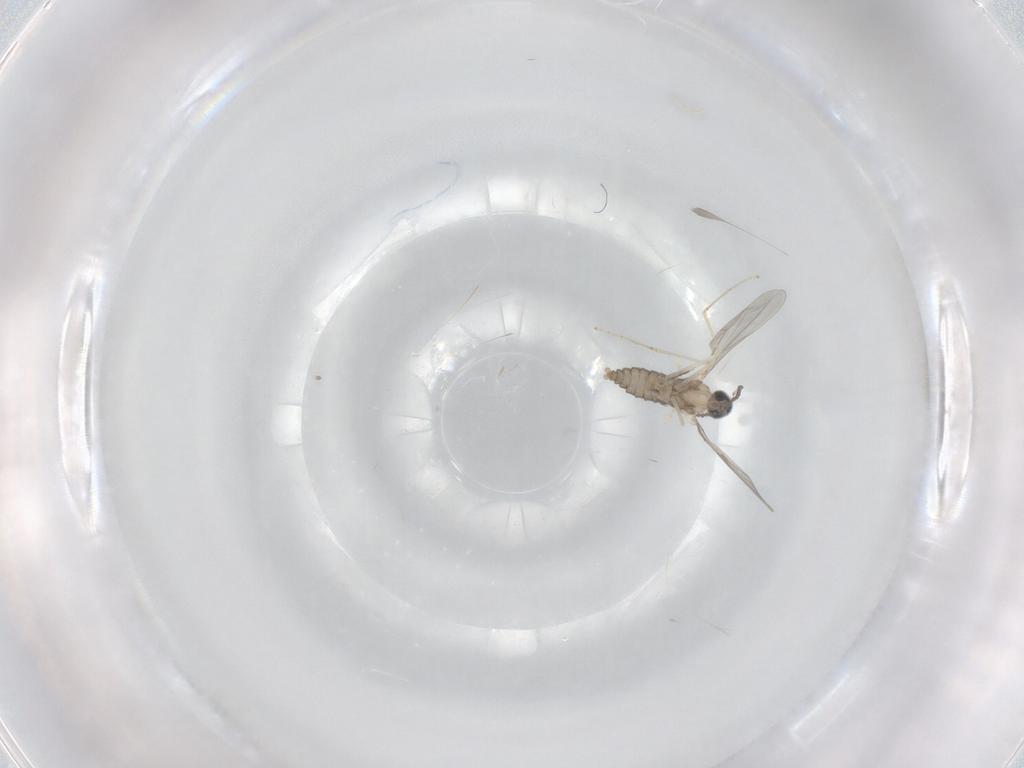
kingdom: Animalia
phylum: Arthropoda
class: Insecta
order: Diptera
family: Cecidomyiidae
